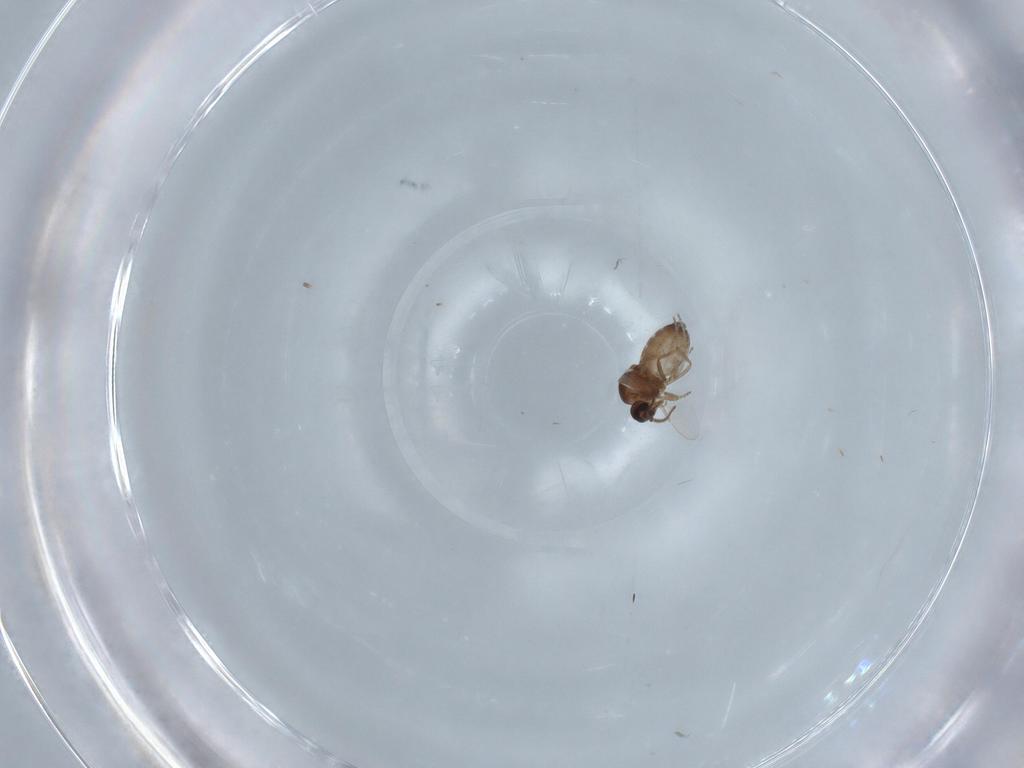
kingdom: Animalia
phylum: Arthropoda
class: Insecta
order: Diptera
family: Ceratopogonidae
